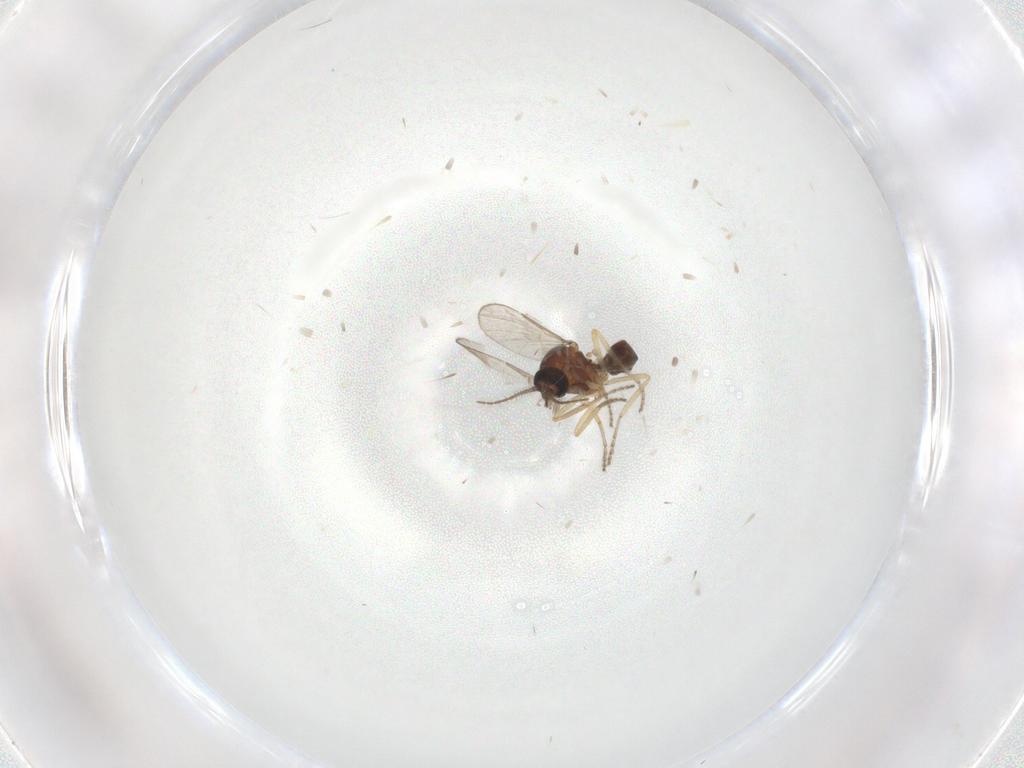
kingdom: Animalia
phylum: Arthropoda
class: Insecta
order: Diptera
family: Ceratopogonidae
